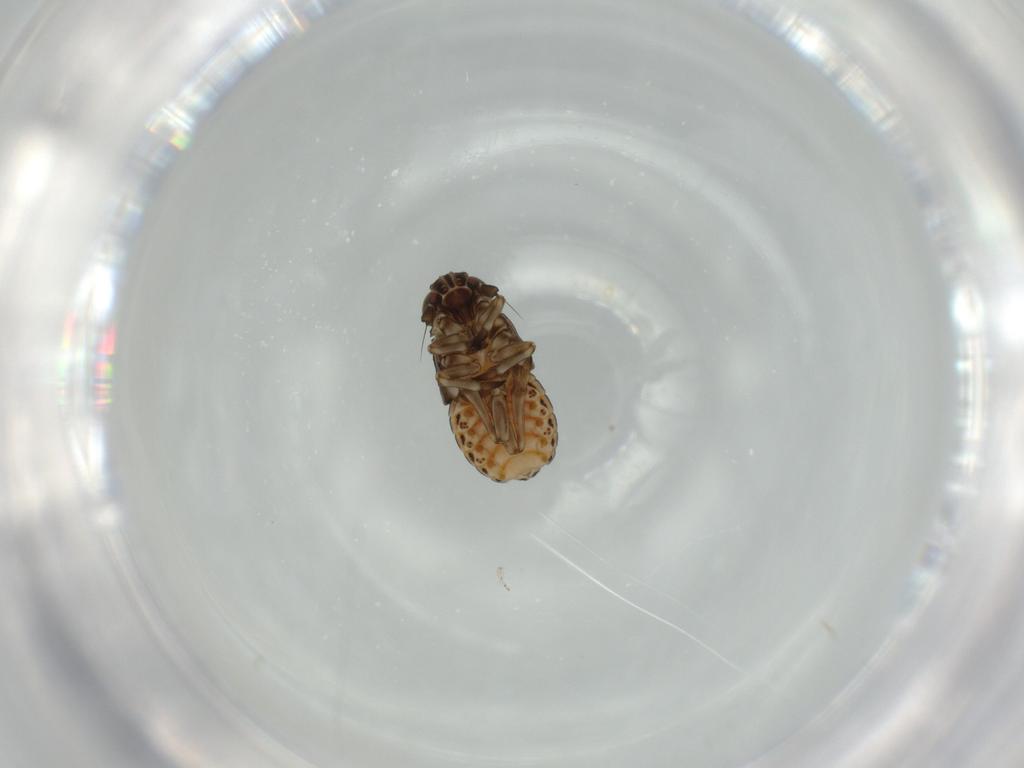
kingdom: Animalia
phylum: Arthropoda
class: Insecta
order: Hemiptera
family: Delphacidae
